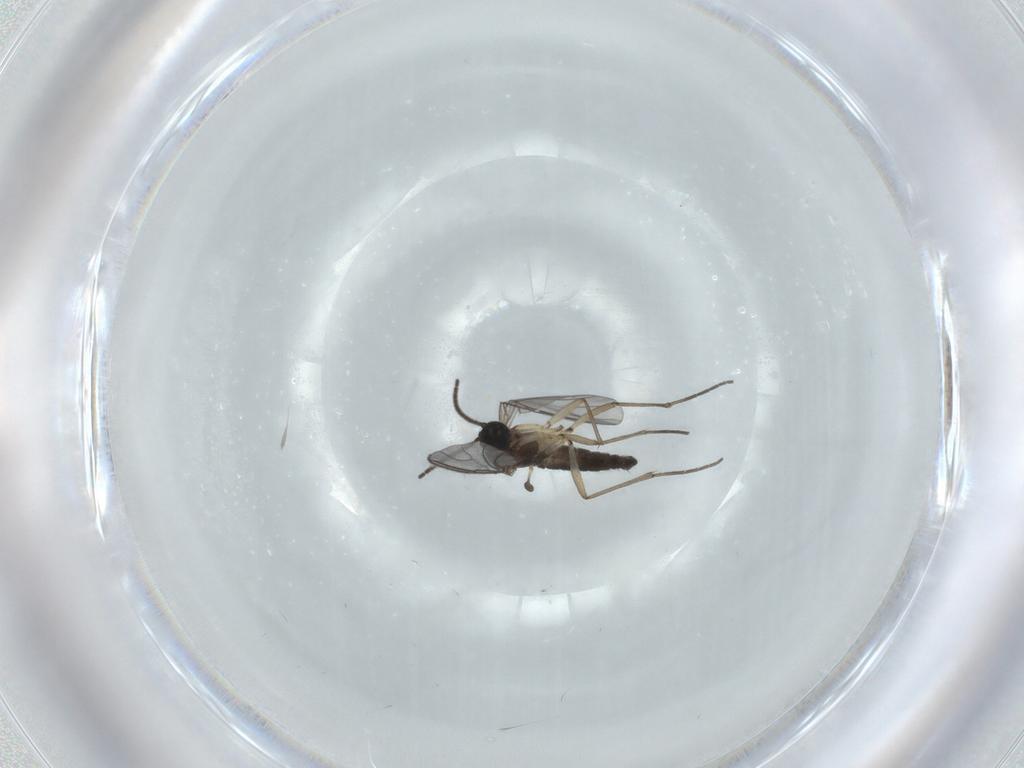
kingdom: Animalia
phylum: Arthropoda
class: Insecta
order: Diptera
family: Sciaridae
